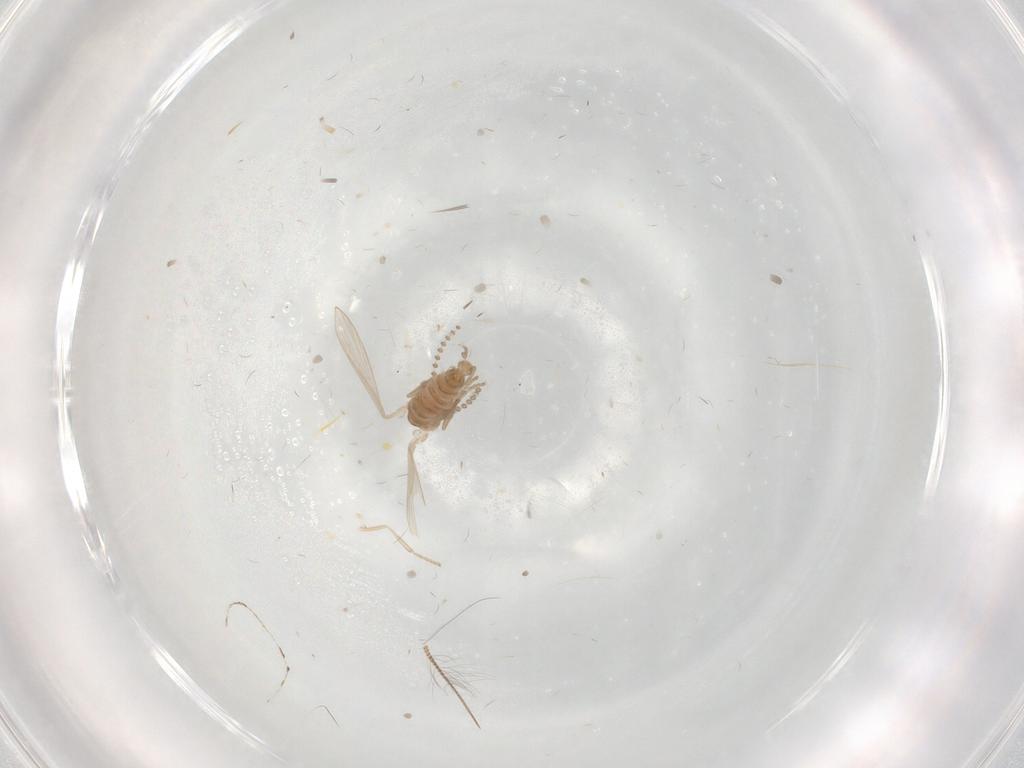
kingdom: Animalia
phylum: Arthropoda
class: Insecta
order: Diptera
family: Psychodidae
